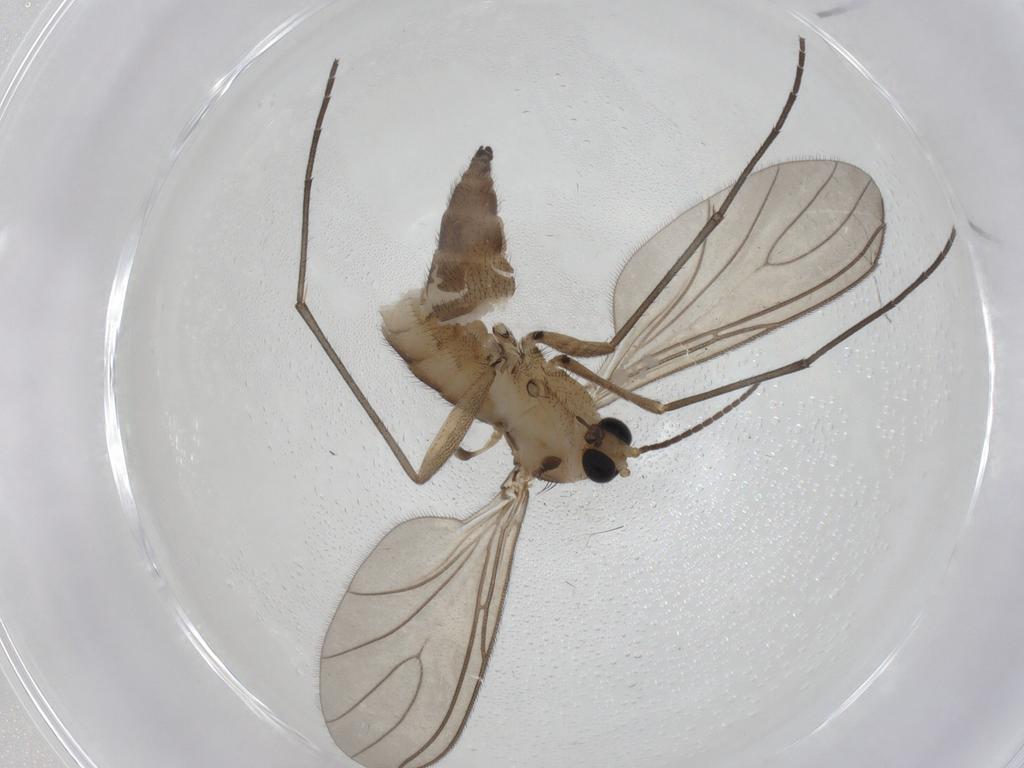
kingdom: Animalia
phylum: Arthropoda
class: Insecta
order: Diptera
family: Sciaridae
